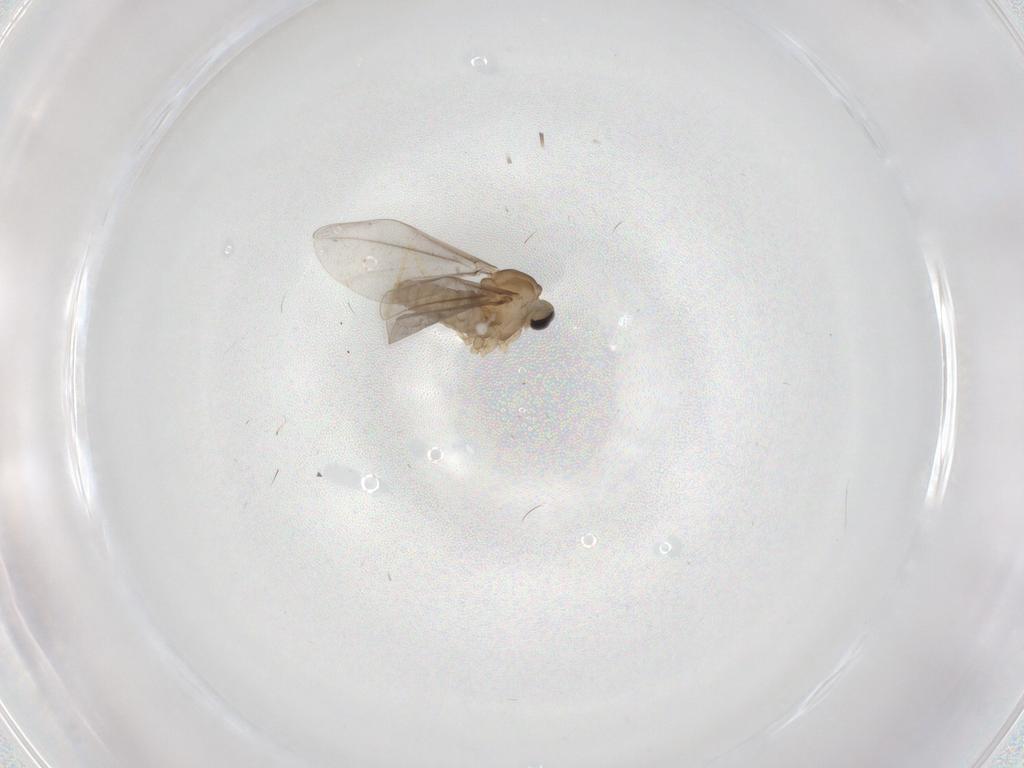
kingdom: Animalia
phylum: Arthropoda
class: Insecta
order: Diptera
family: Cecidomyiidae
